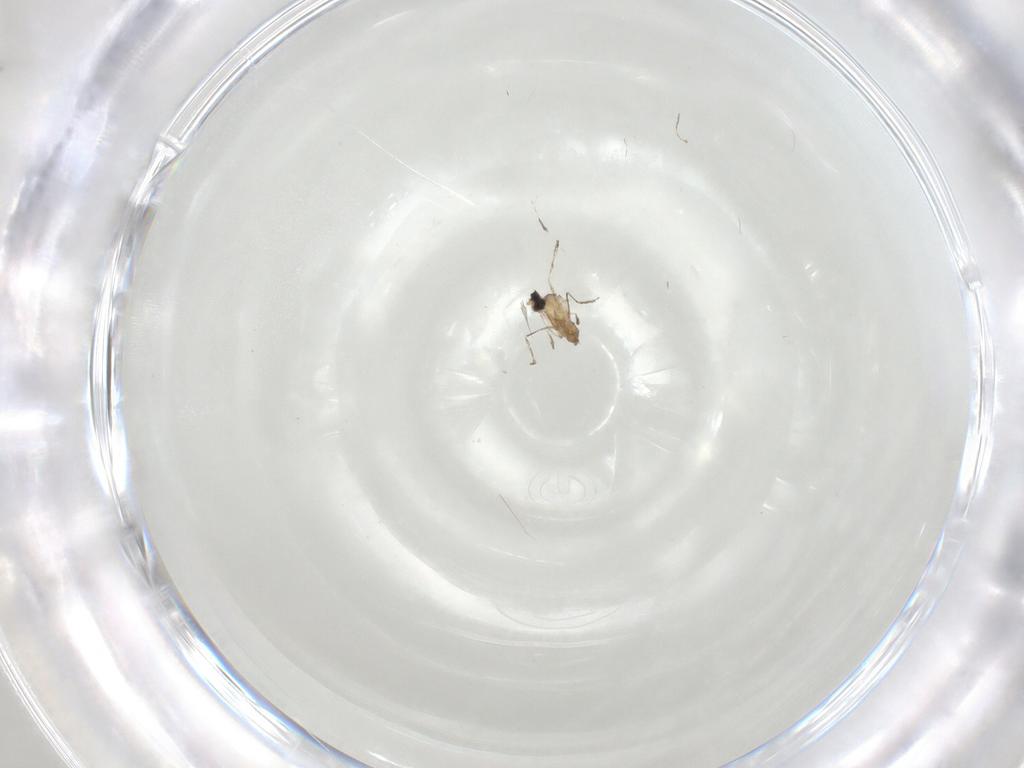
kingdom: Animalia
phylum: Arthropoda
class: Insecta
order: Diptera
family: Cecidomyiidae
